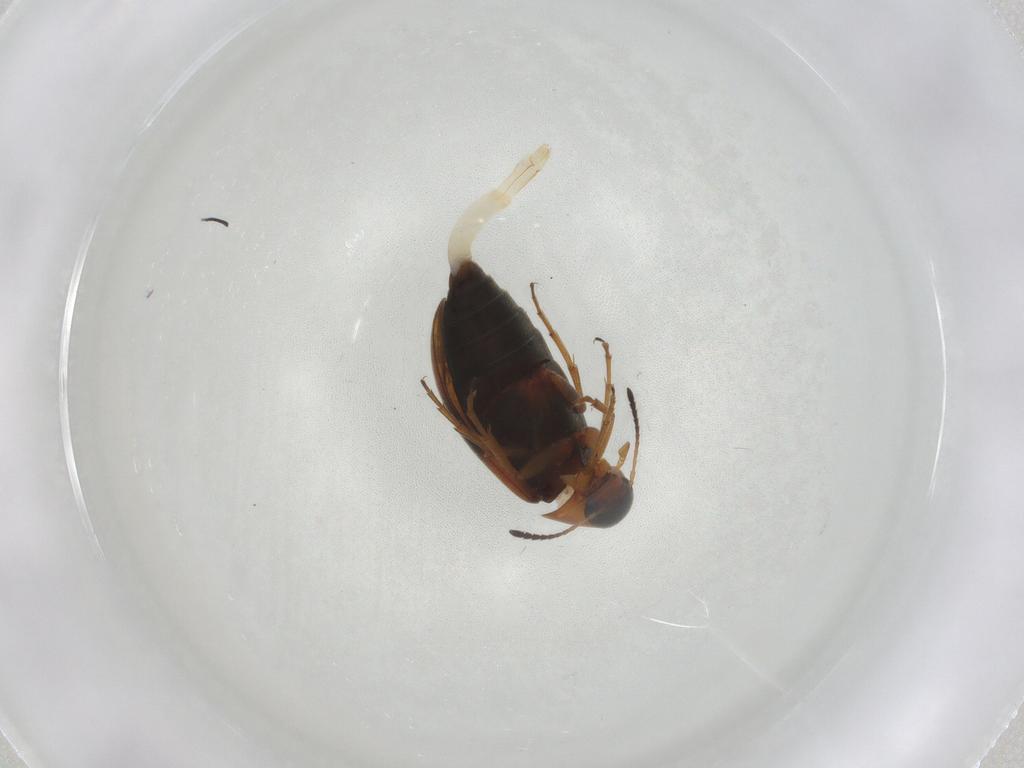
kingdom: Animalia
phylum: Arthropoda
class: Insecta
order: Coleoptera
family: Scraptiidae
